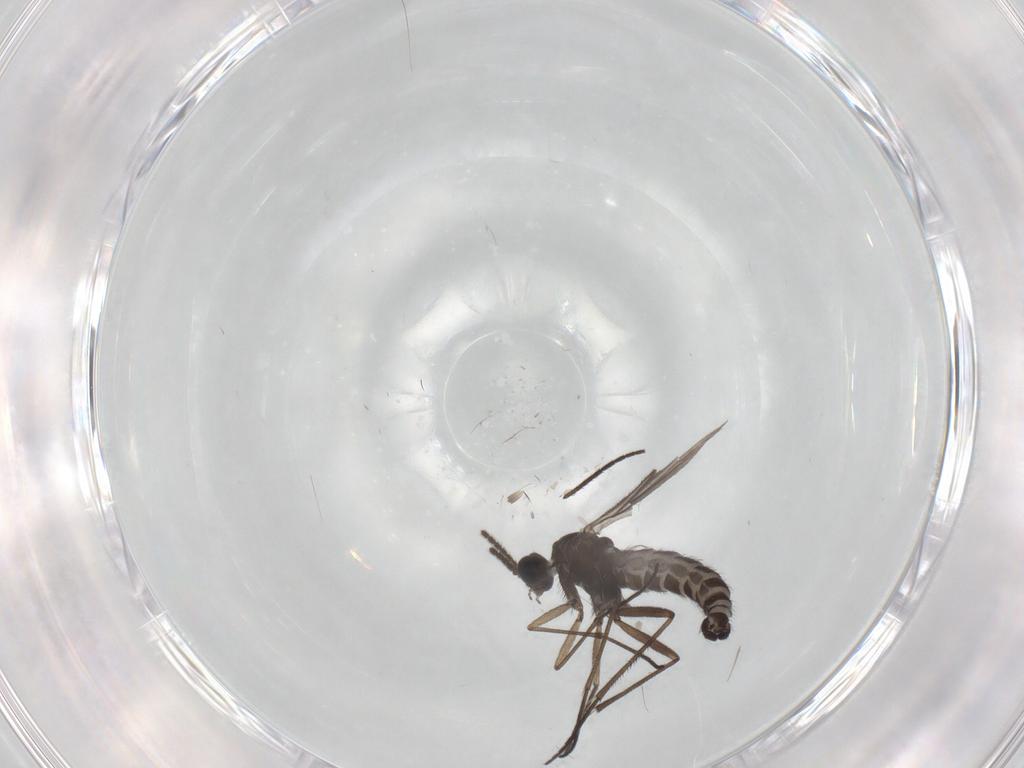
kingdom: Animalia
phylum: Arthropoda
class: Insecta
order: Diptera
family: Sciaridae
